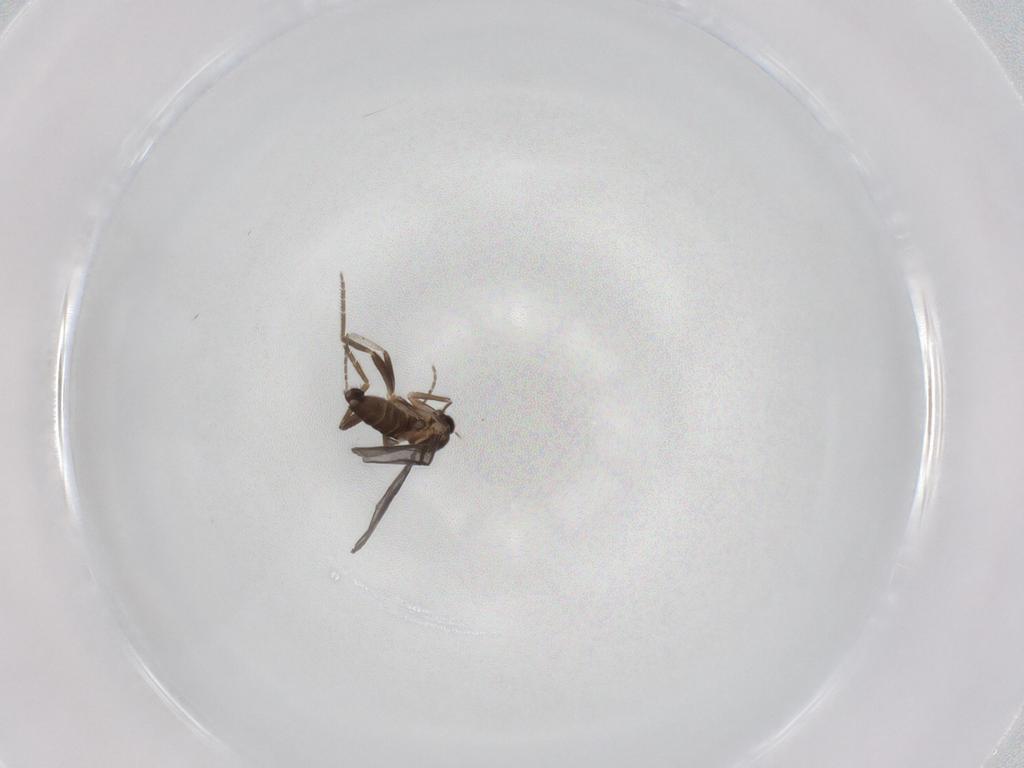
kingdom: Animalia
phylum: Arthropoda
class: Insecta
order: Diptera
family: Phoridae
